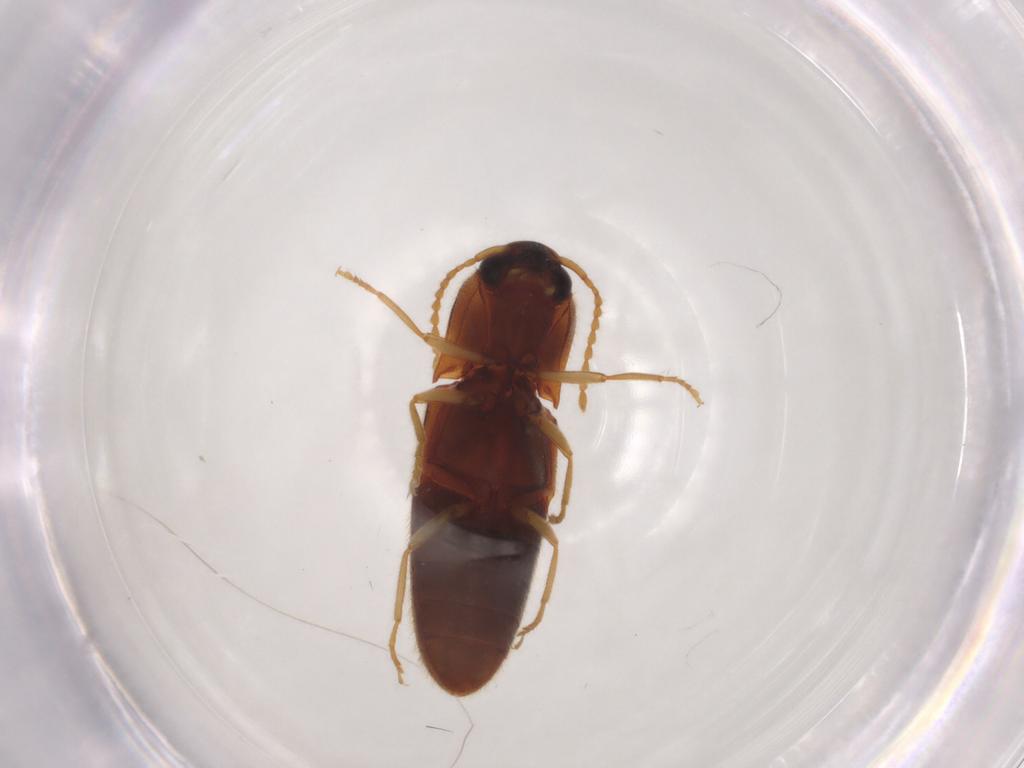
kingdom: Animalia
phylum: Arthropoda
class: Insecta
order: Coleoptera
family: Elateridae
